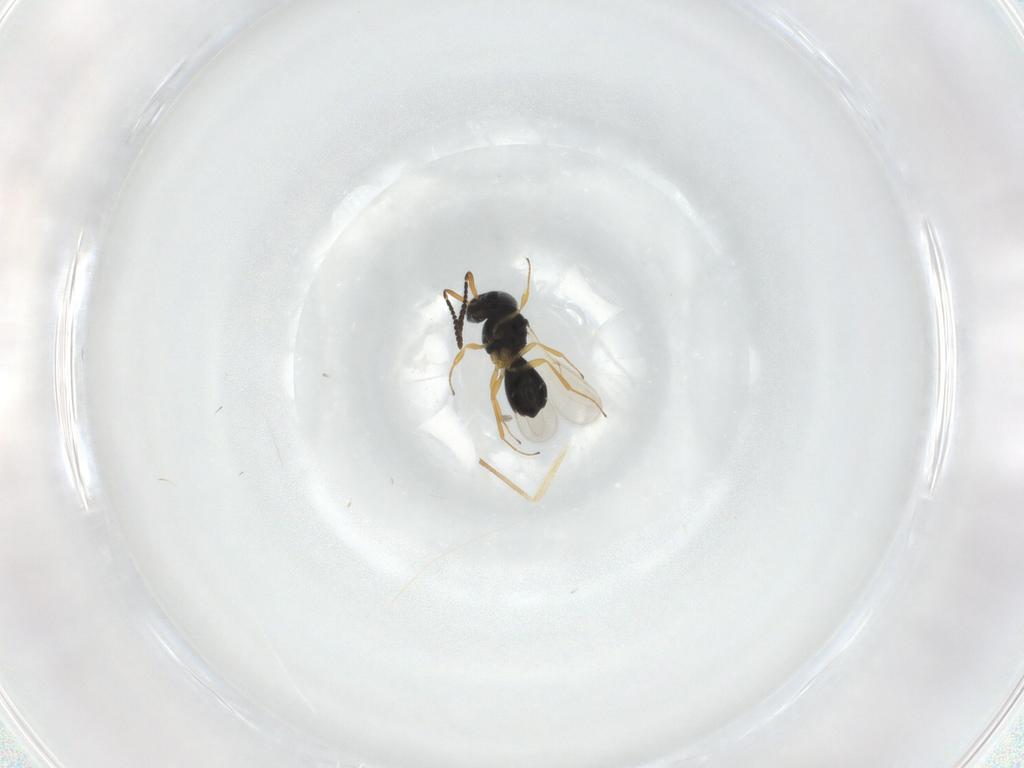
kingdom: Animalia
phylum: Arthropoda
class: Insecta
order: Hymenoptera
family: Scelionidae
